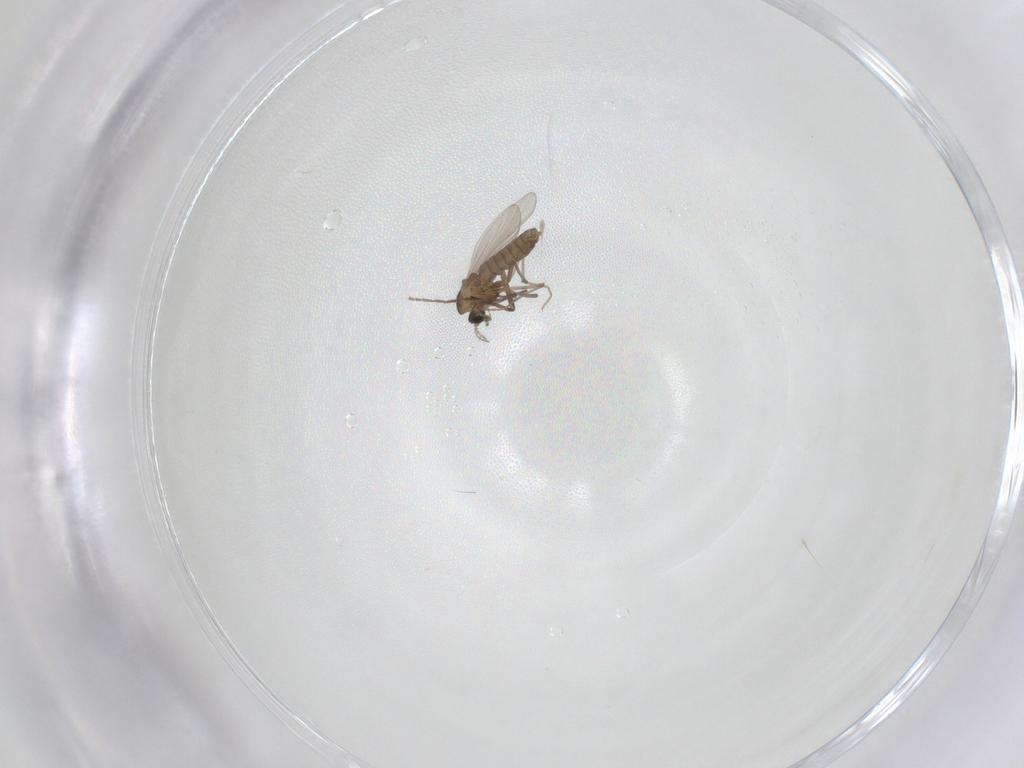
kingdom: Animalia
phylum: Arthropoda
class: Insecta
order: Diptera
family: Chironomidae
